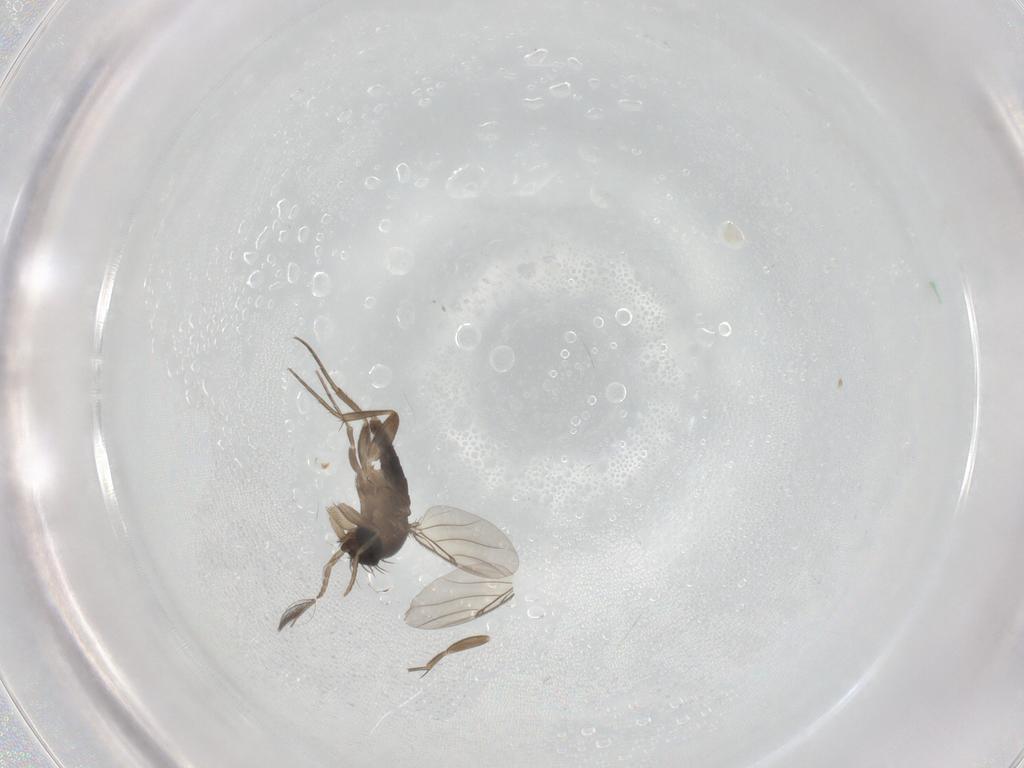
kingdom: Animalia
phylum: Arthropoda
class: Insecta
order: Diptera
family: Phoridae
